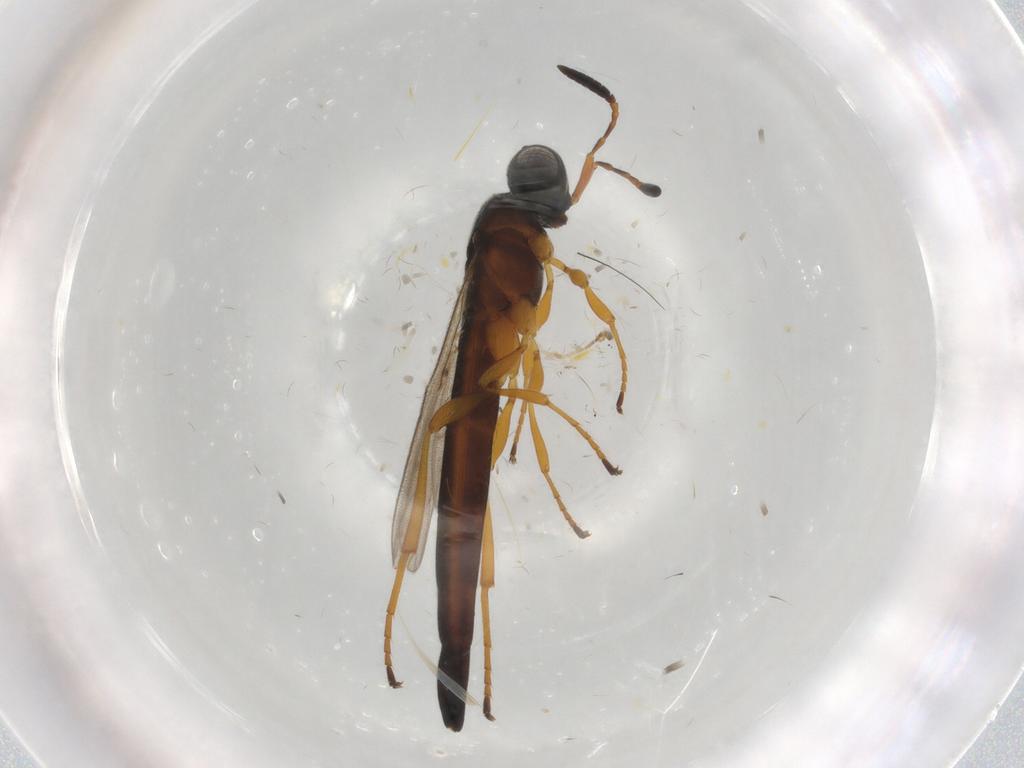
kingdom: Animalia
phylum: Arthropoda
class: Insecta
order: Hymenoptera
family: Scelionidae
